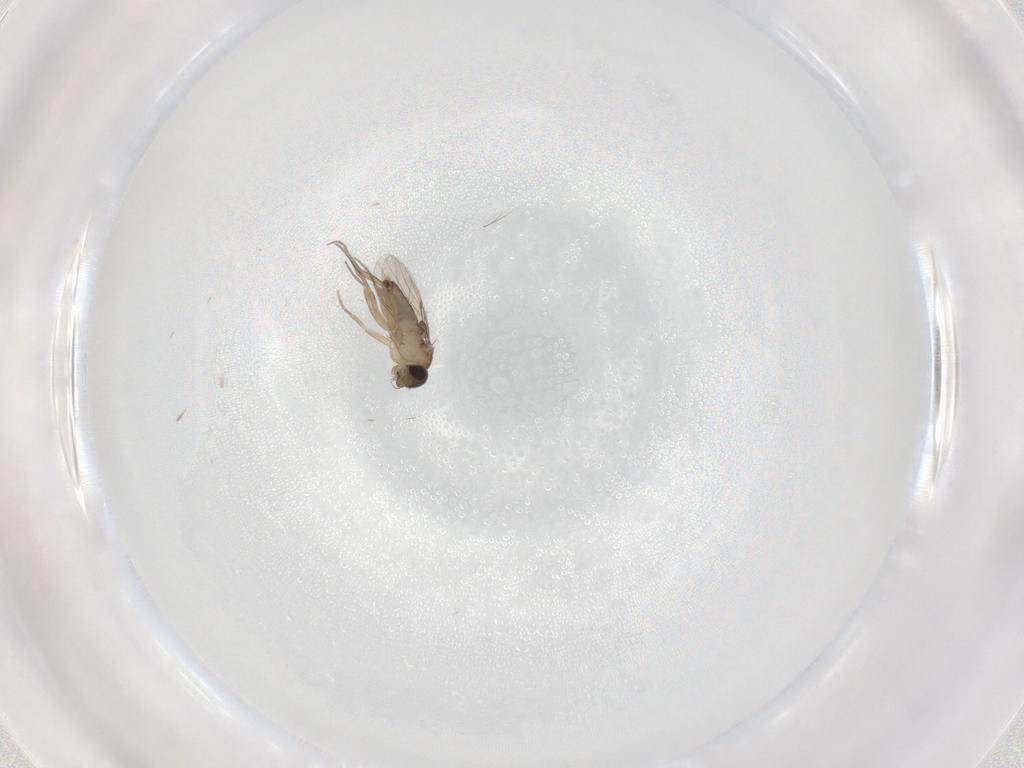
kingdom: Animalia
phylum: Arthropoda
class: Insecta
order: Diptera
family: Phoridae
